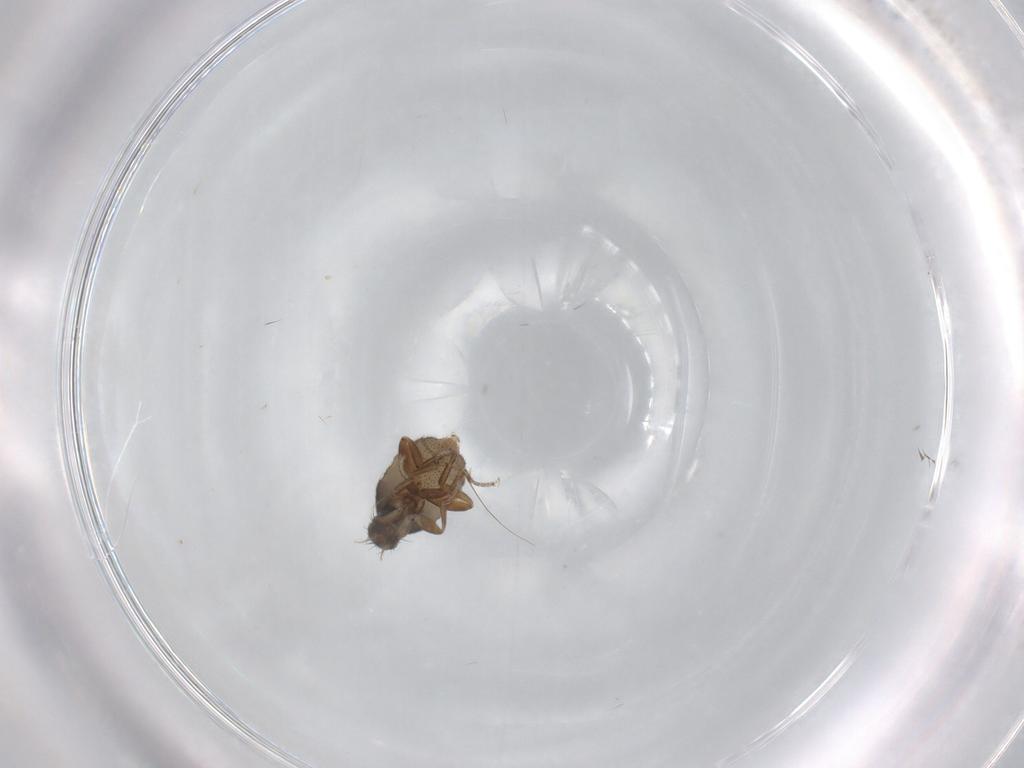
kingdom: Animalia
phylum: Arthropoda
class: Insecta
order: Diptera
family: Phoridae
